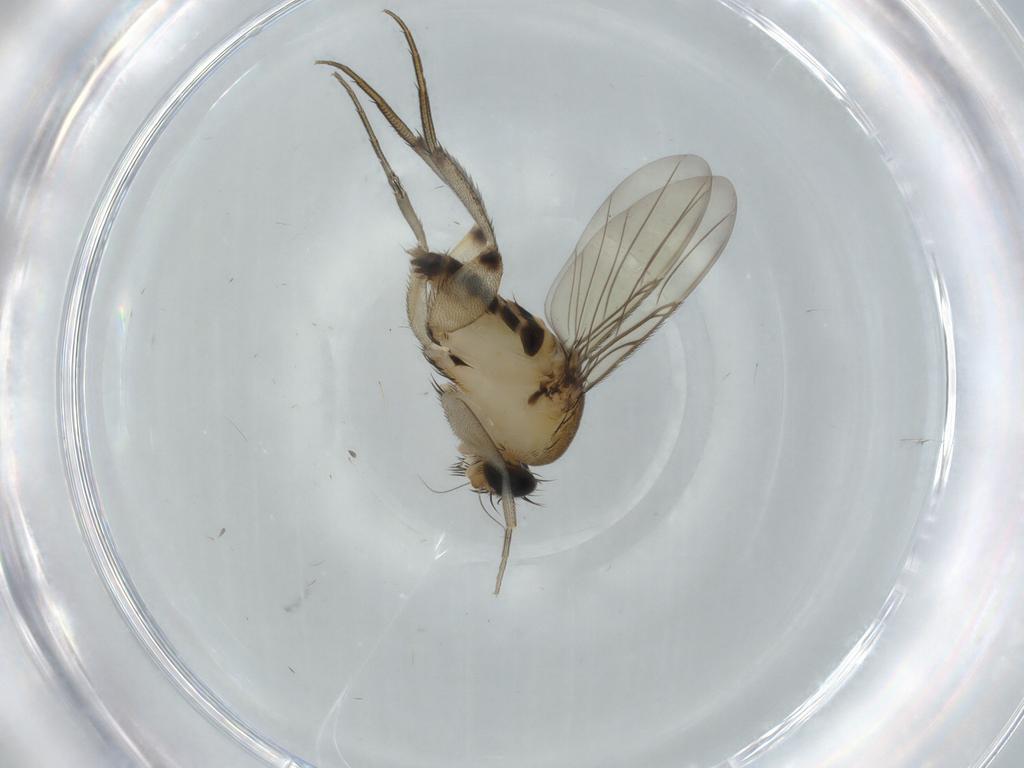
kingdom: Animalia
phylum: Arthropoda
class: Insecta
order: Diptera
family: Phoridae
